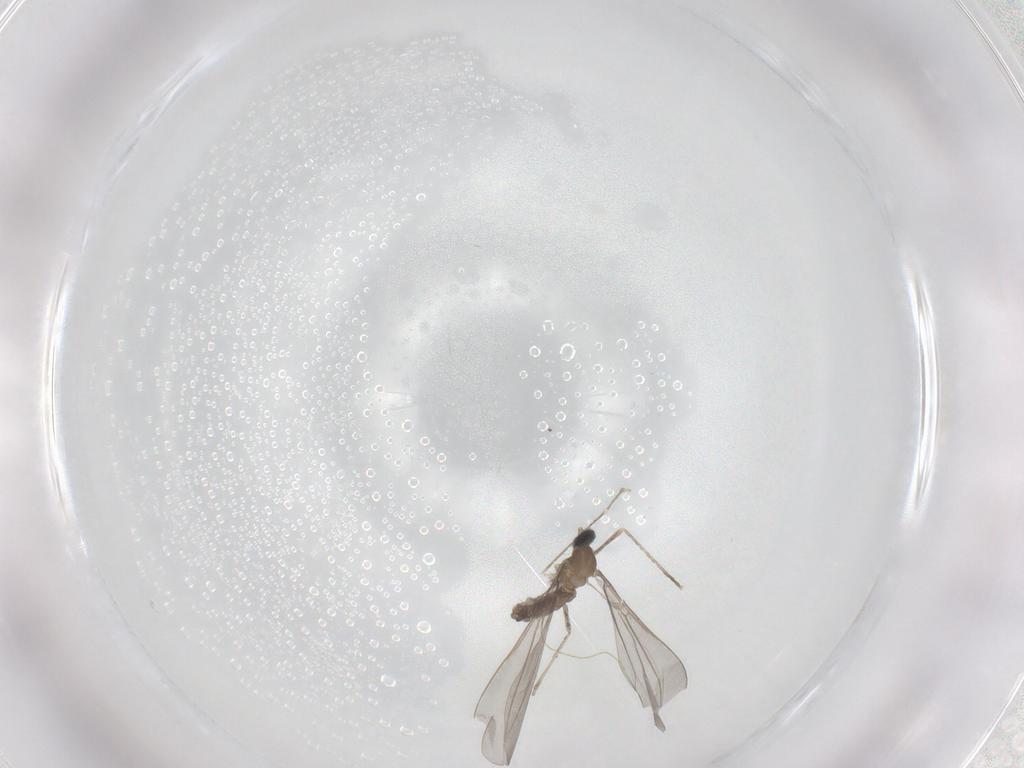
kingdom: Animalia
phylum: Arthropoda
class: Insecta
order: Diptera
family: Cecidomyiidae
